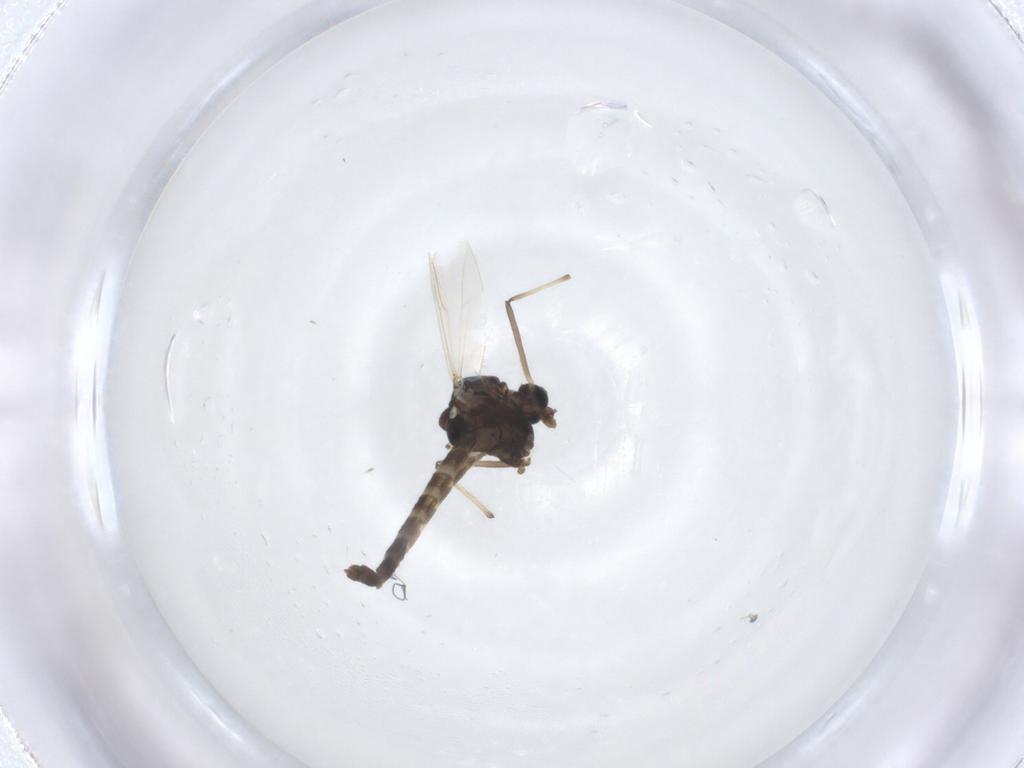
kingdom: Animalia
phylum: Arthropoda
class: Insecta
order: Diptera
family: Chironomidae
